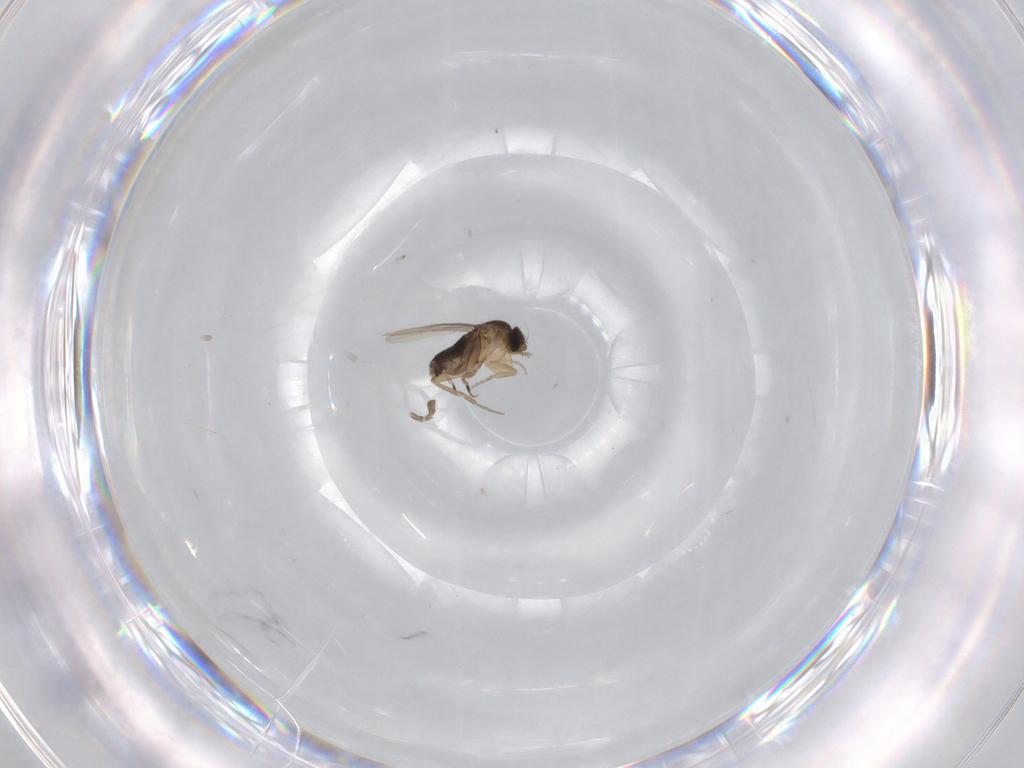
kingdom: Animalia
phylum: Arthropoda
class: Insecta
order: Diptera
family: Phoridae
